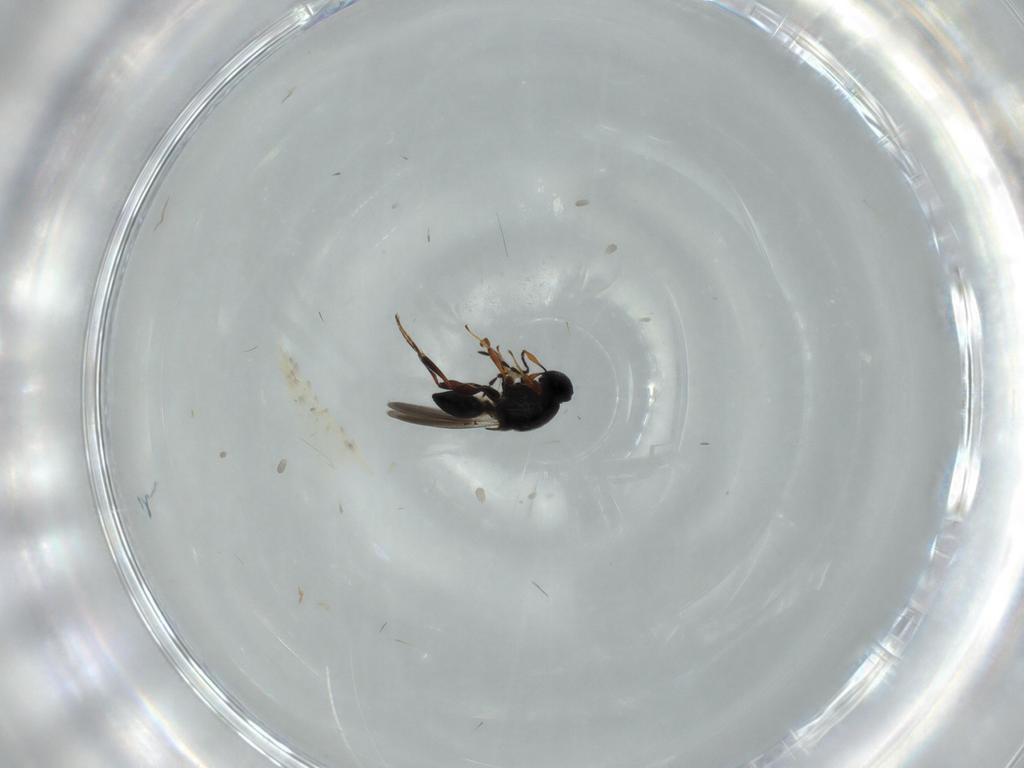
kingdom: Animalia
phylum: Arthropoda
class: Insecta
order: Hymenoptera
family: Platygastridae
